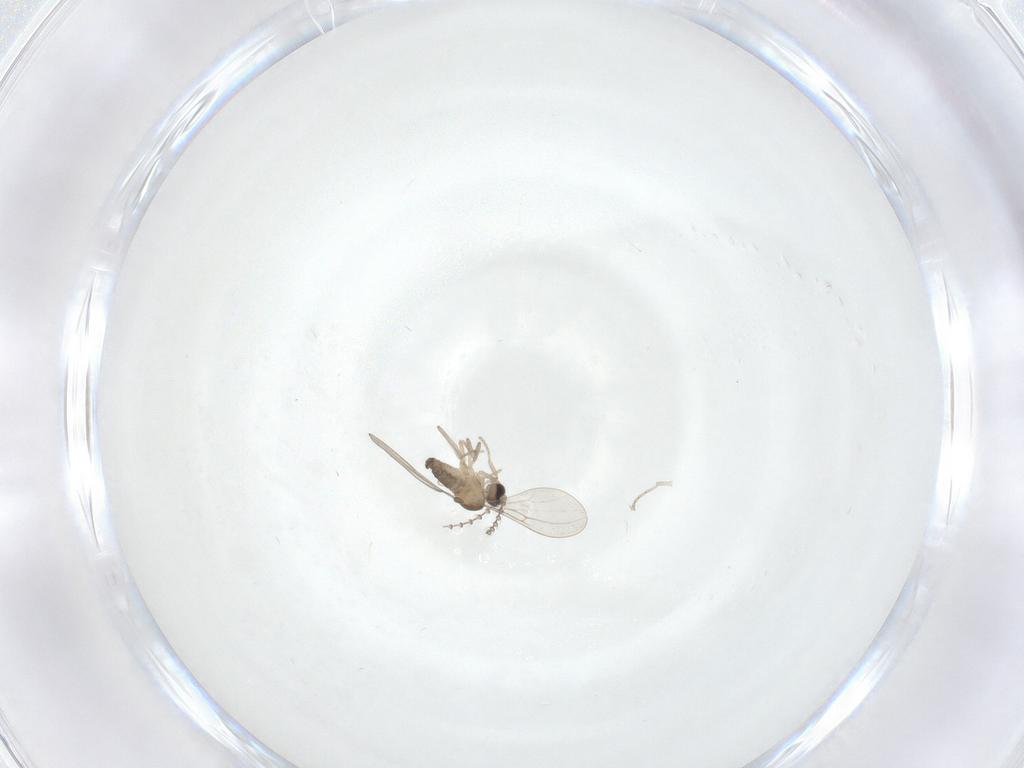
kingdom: Animalia
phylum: Arthropoda
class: Insecta
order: Diptera
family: Cecidomyiidae
